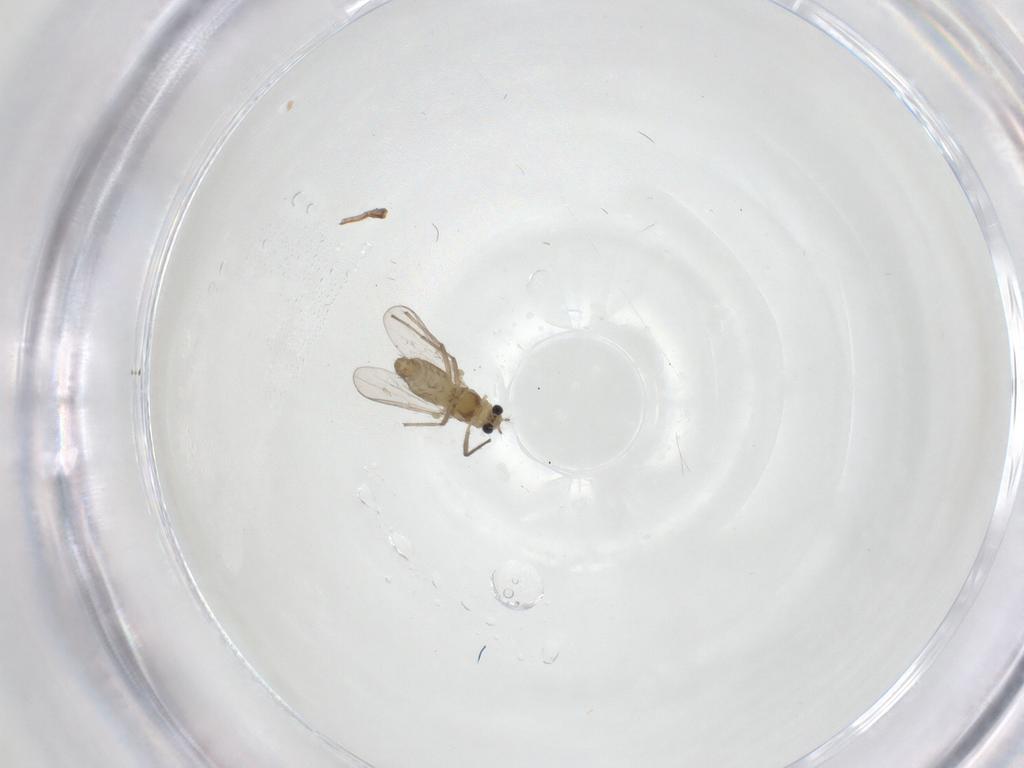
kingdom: Animalia
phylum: Arthropoda
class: Insecta
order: Diptera
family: Chironomidae
